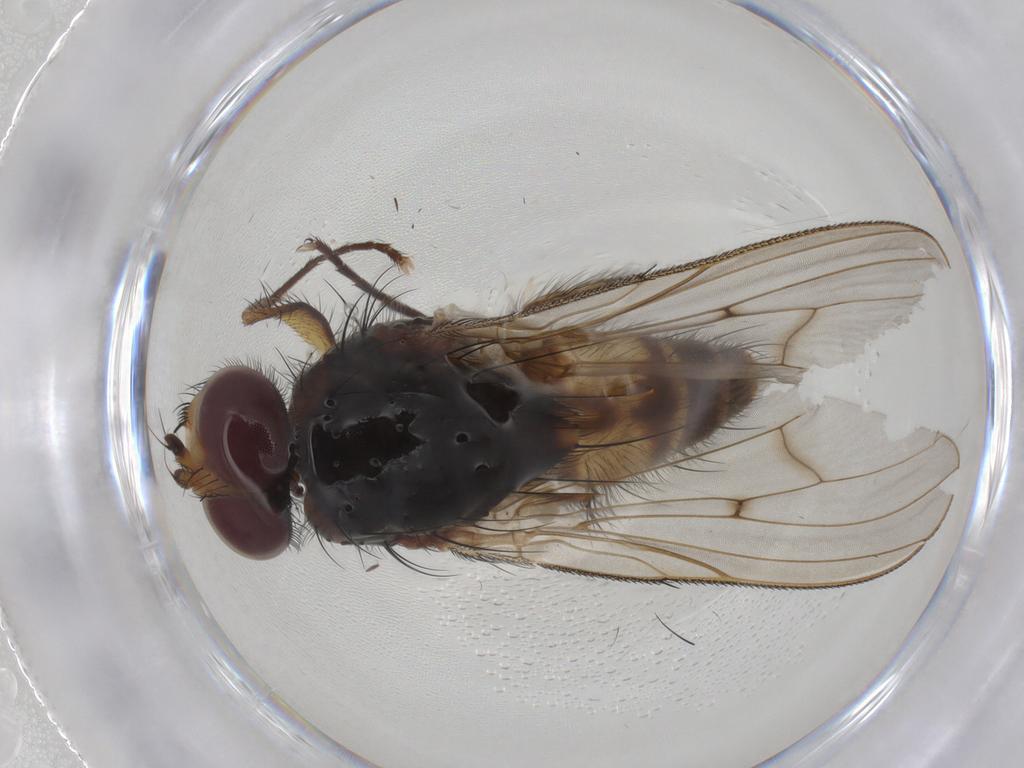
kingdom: Animalia
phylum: Arthropoda
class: Insecta
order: Diptera
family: Anthomyiidae
